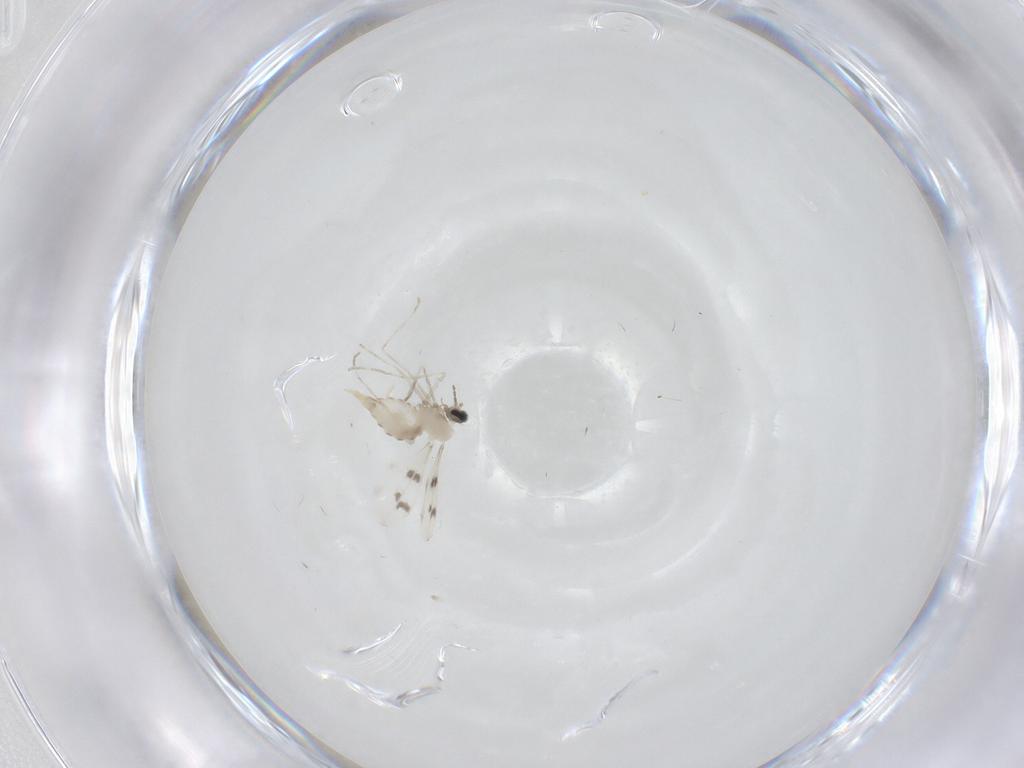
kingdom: Animalia
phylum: Arthropoda
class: Insecta
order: Diptera
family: Cecidomyiidae
